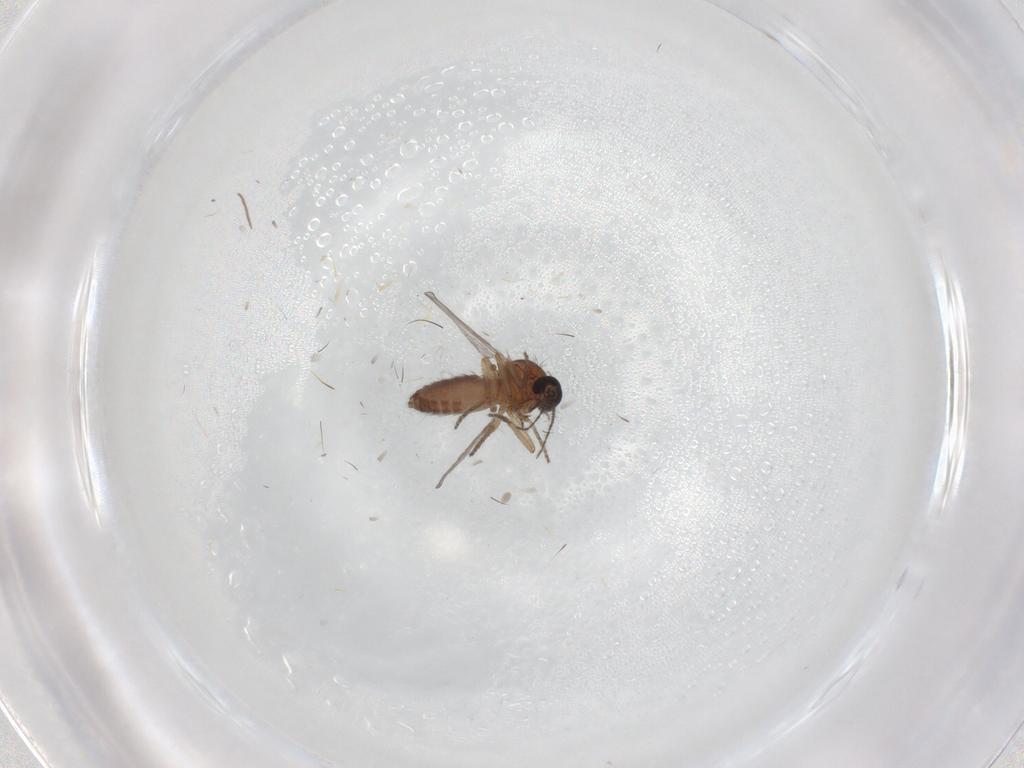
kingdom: Animalia
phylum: Arthropoda
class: Insecta
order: Diptera
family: Ceratopogonidae
